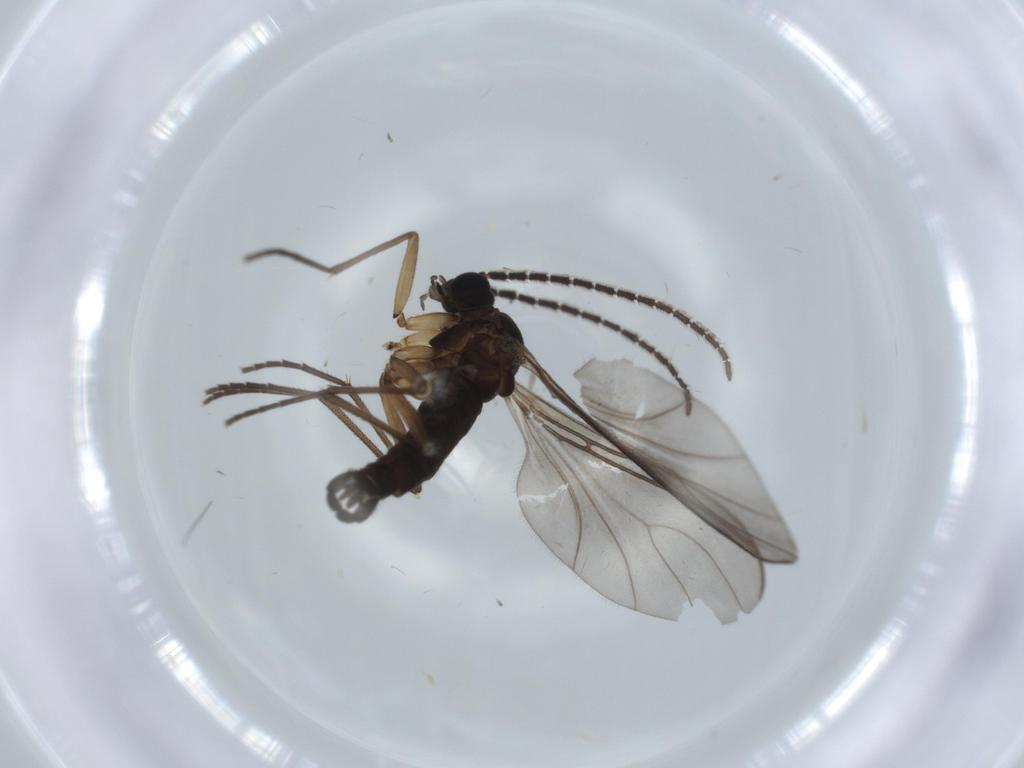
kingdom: Animalia
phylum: Arthropoda
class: Insecta
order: Diptera
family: Sciaridae
